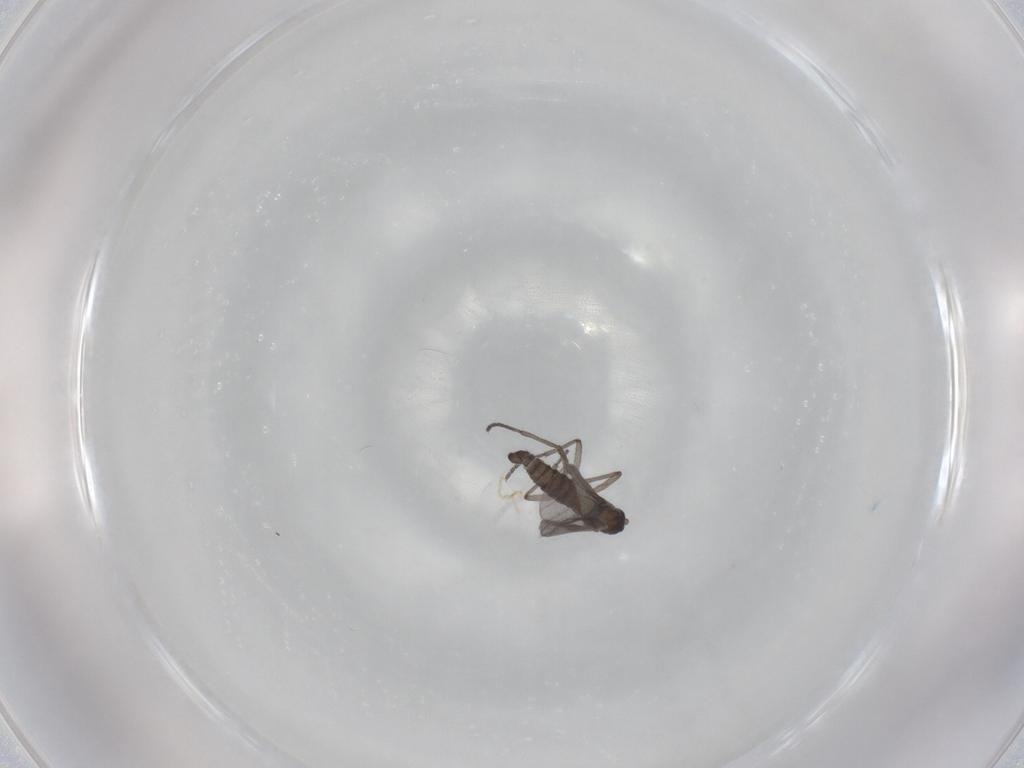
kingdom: Animalia
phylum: Arthropoda
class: Insecta
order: Diptera
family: Sciaridae
